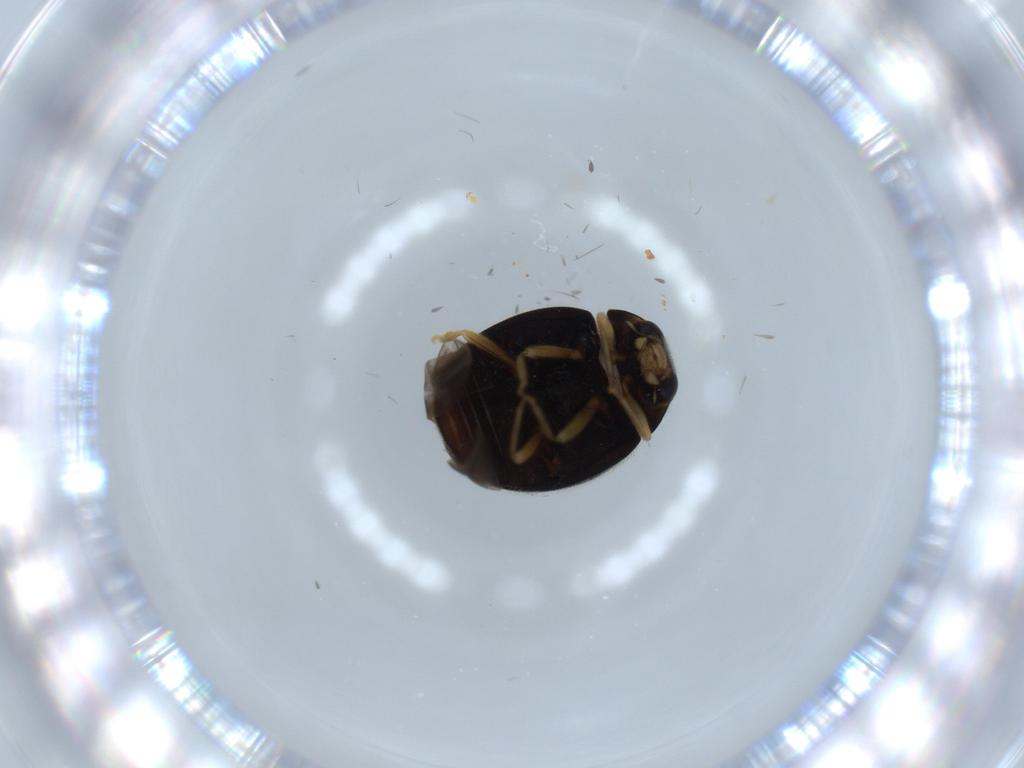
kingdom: Animalia
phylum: Arthropoda
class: Insecta
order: Coleoptera
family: Coccinellidae
